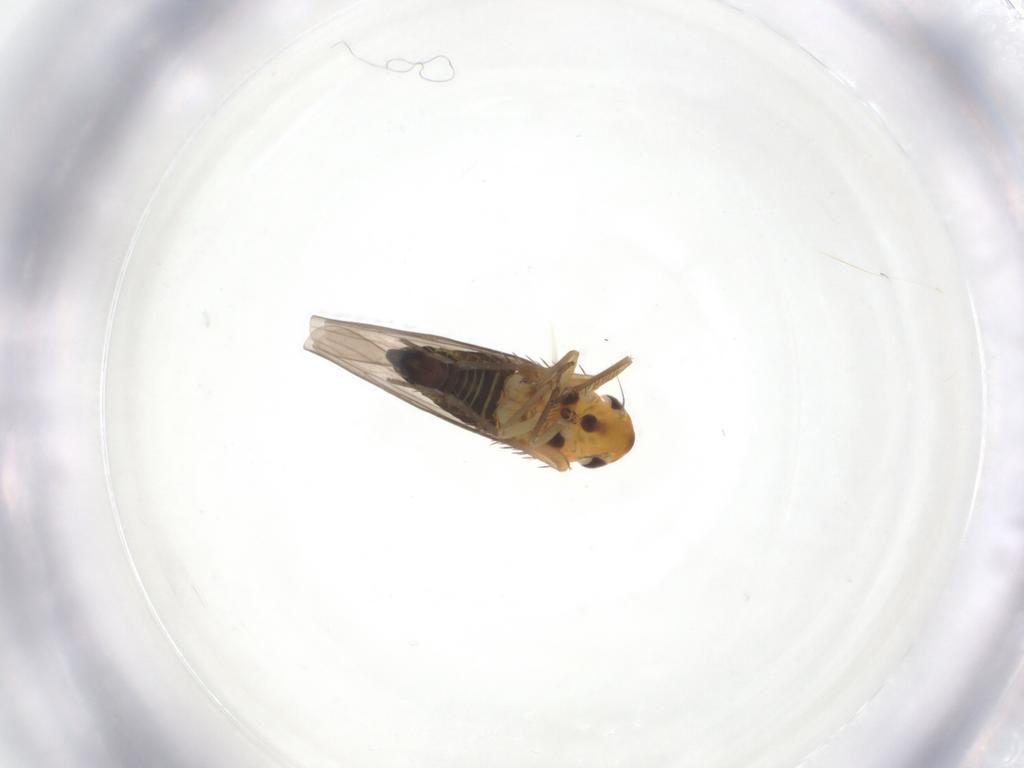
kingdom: Animalia
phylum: Arthropoda
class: Insecta
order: Hemiptera
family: Cicadellidae
